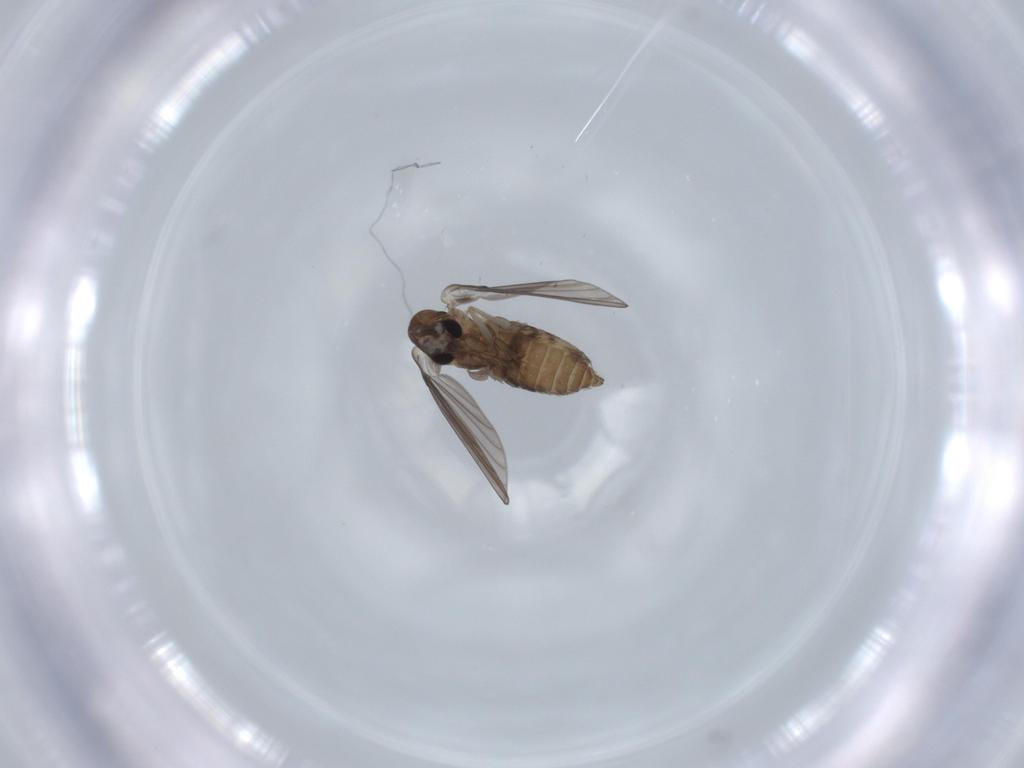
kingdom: Animalia
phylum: Arthropoda
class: Insecta
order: Diptera
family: Psychodidae
